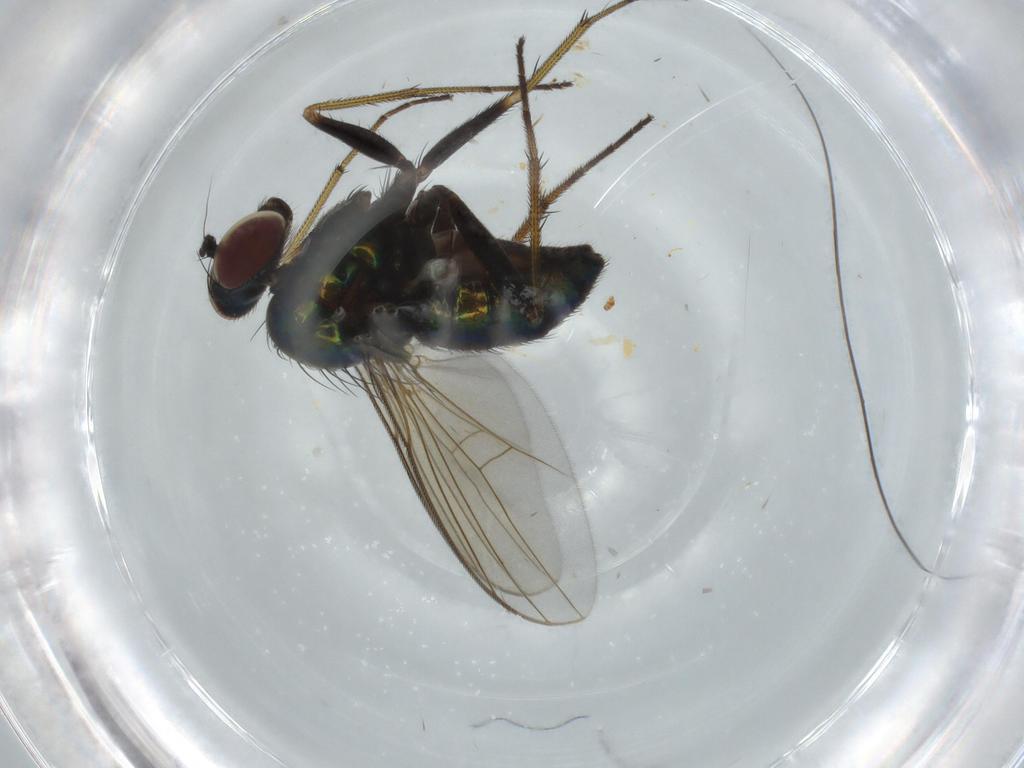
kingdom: Animalia
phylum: Arthropoda
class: Insecta
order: Diptera
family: Dolichopodidae
